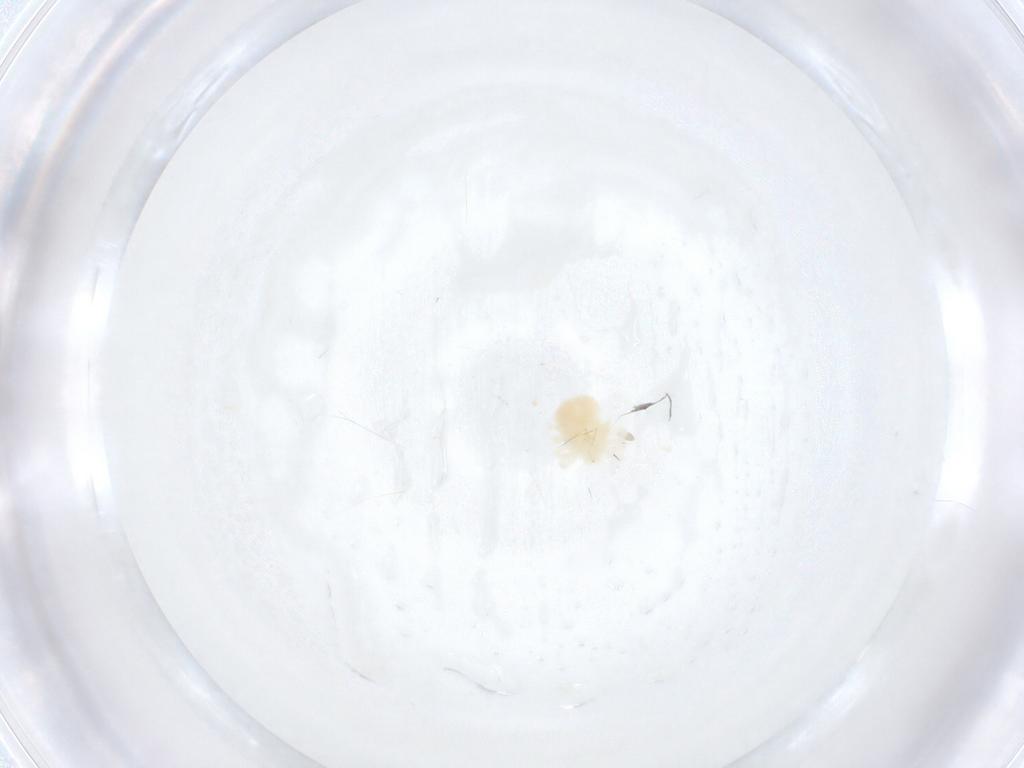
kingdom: Animalia
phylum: Arthropoda
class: Arachnida
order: Trombidiformes
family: Anystidae
